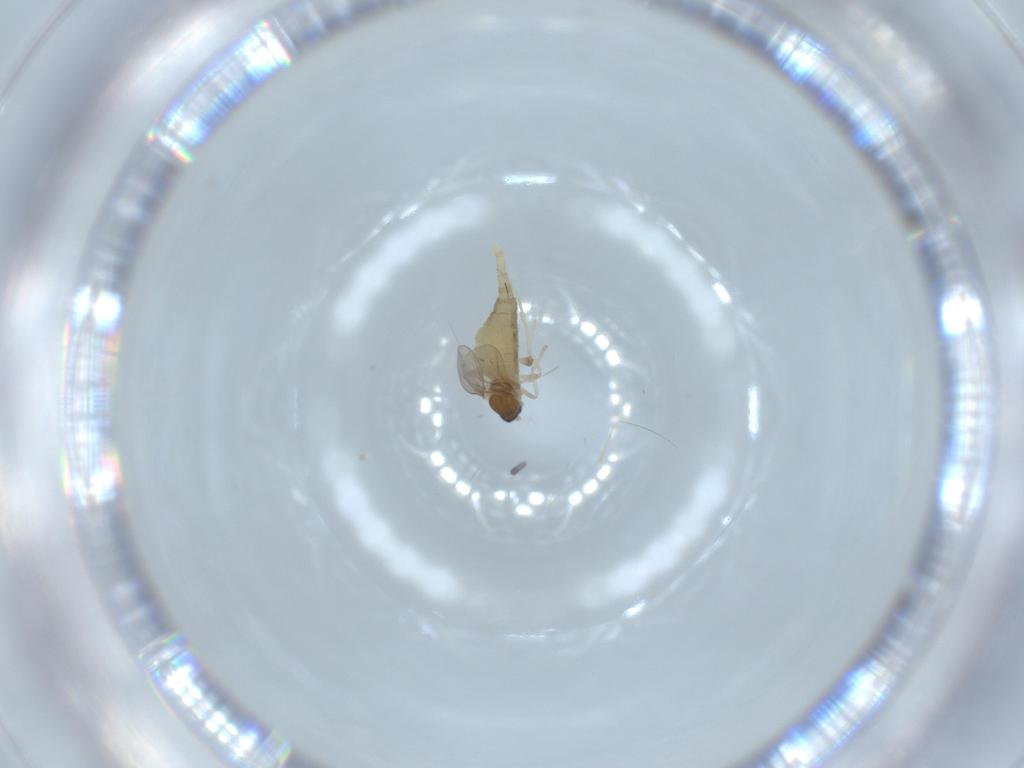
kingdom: Animalia
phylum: Arthropoda
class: Insecta
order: Diptera
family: Cecidomyiidae
